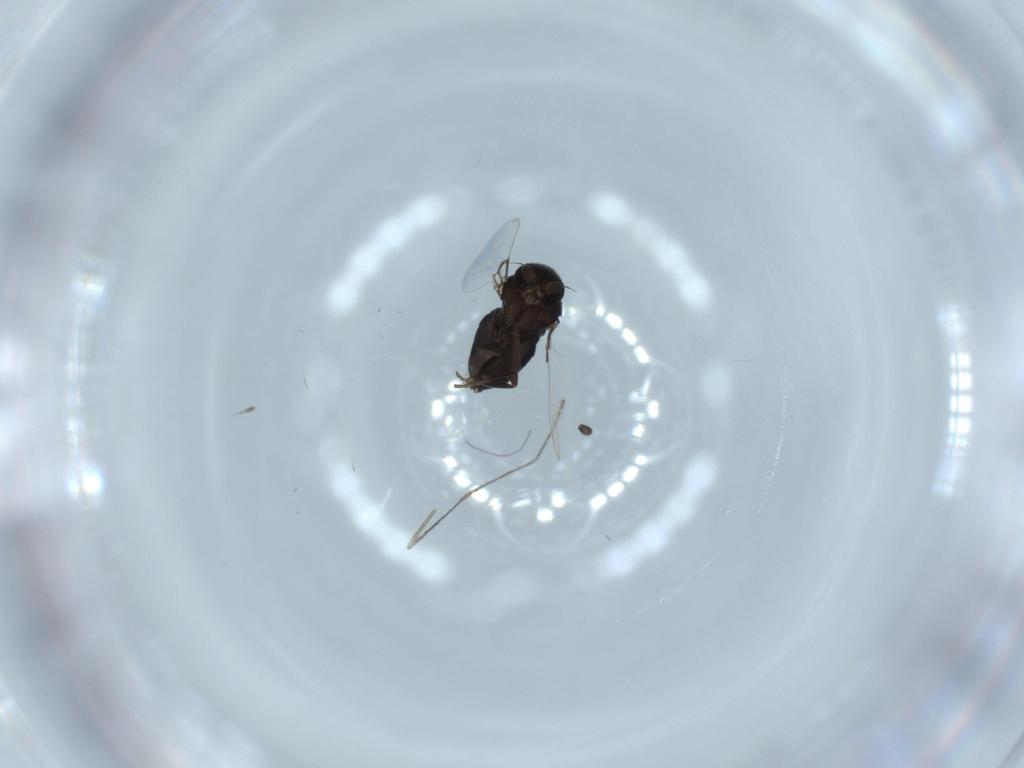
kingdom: Animalia
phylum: Arthropoda
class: Insecta
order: Diptera
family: Phoridae
